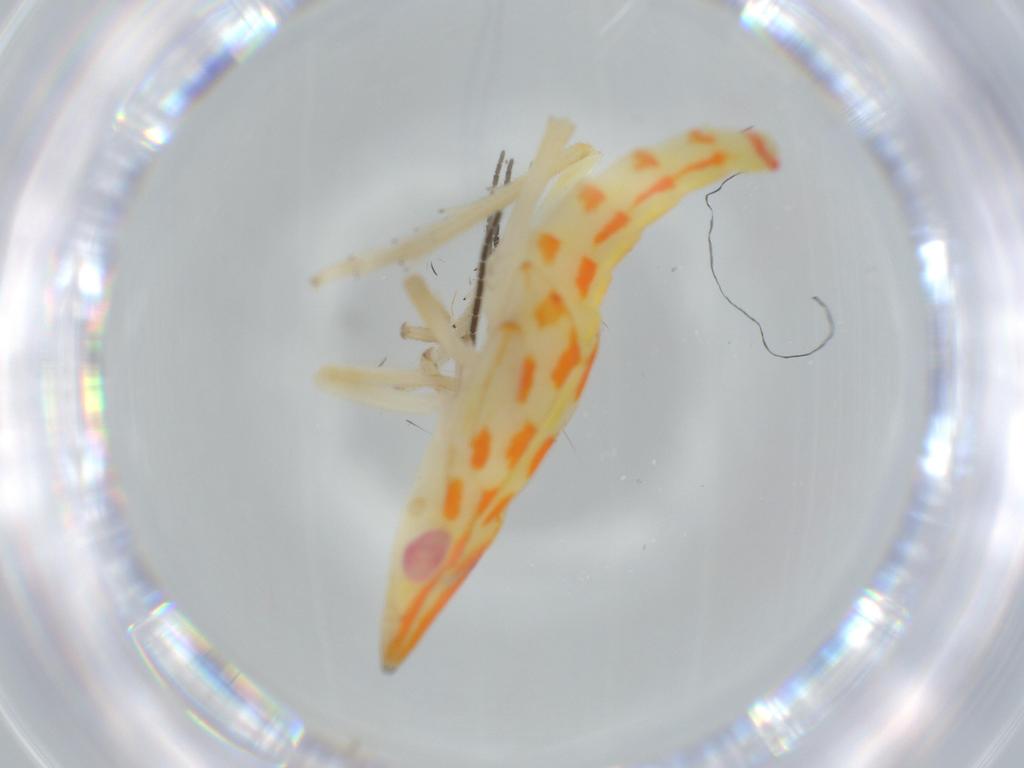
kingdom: Animalia
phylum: Arthropoda
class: Insecta
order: Hemiptera
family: Tropiduchidae
